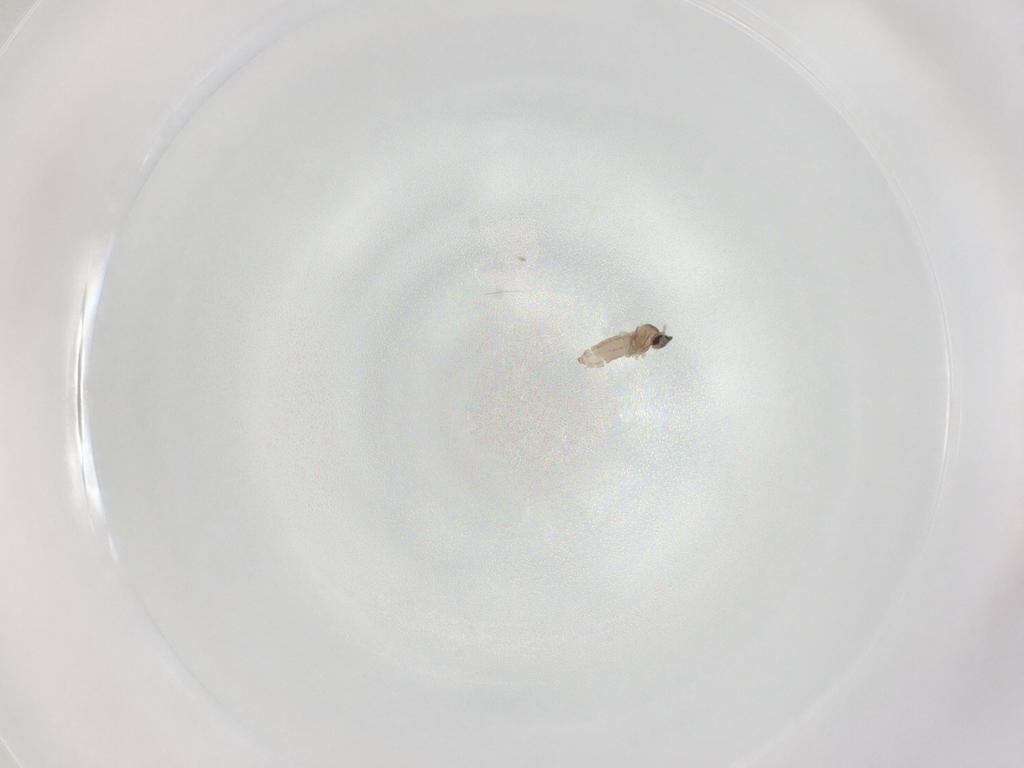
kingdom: Animalia
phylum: Arthropoda
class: Insecta
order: Diptera
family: Cecidomyiidae
